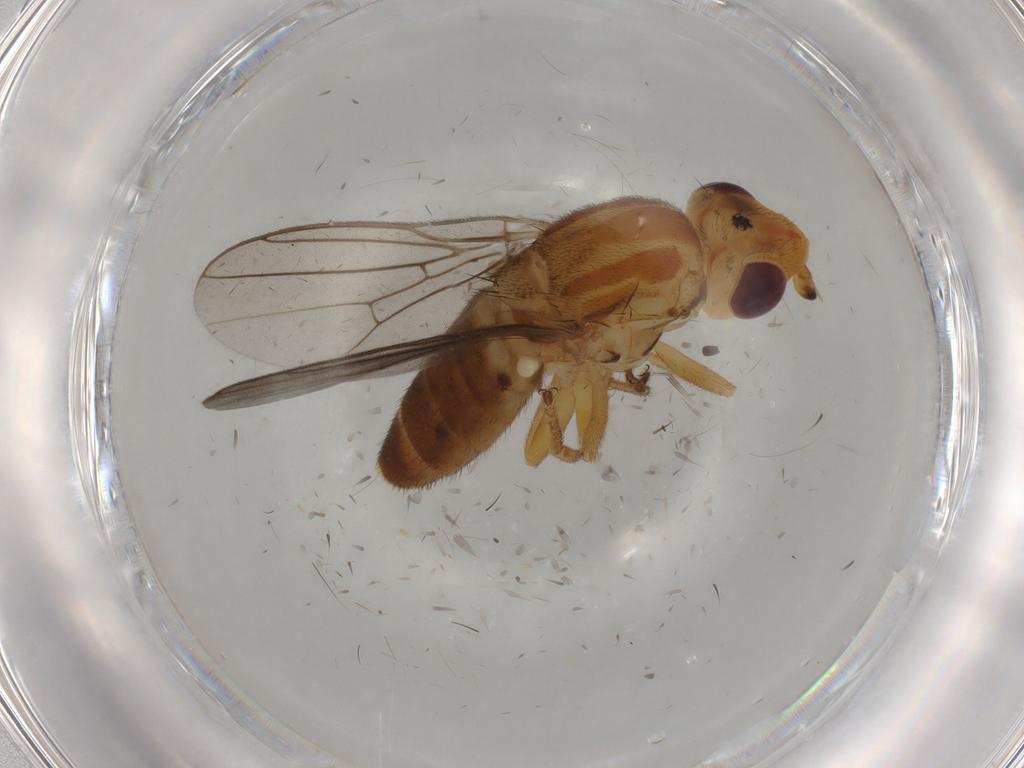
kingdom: Animalia
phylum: Arthropoda
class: Insecta
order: Diptera
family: Chloropidae
